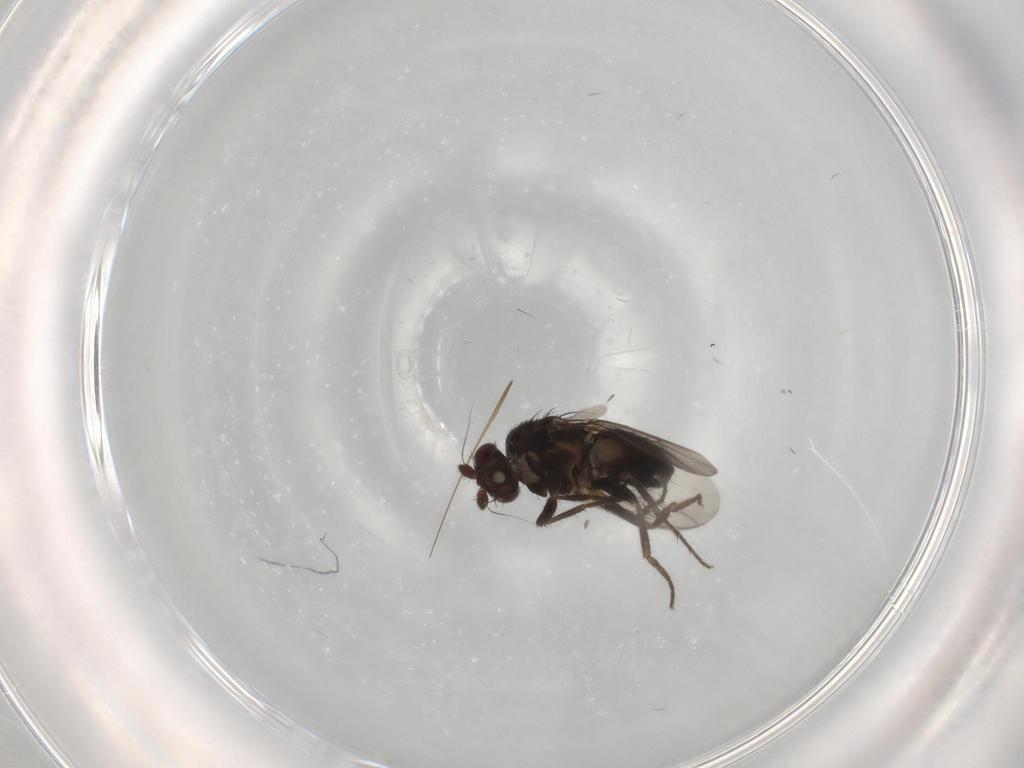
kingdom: Animalia
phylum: Arthropoda
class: Insecta
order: Diptera
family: Sphaeroceridae
